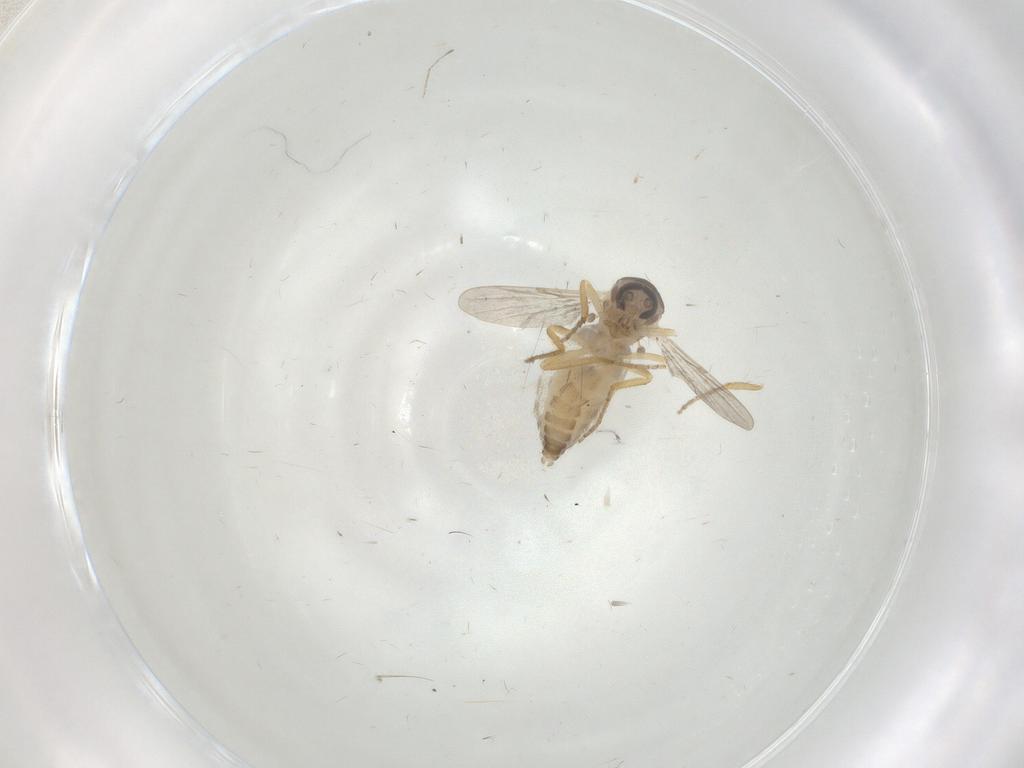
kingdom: Animalia
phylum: Arthropoda
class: Insecta
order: Diptera
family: Ceratopogonidae
